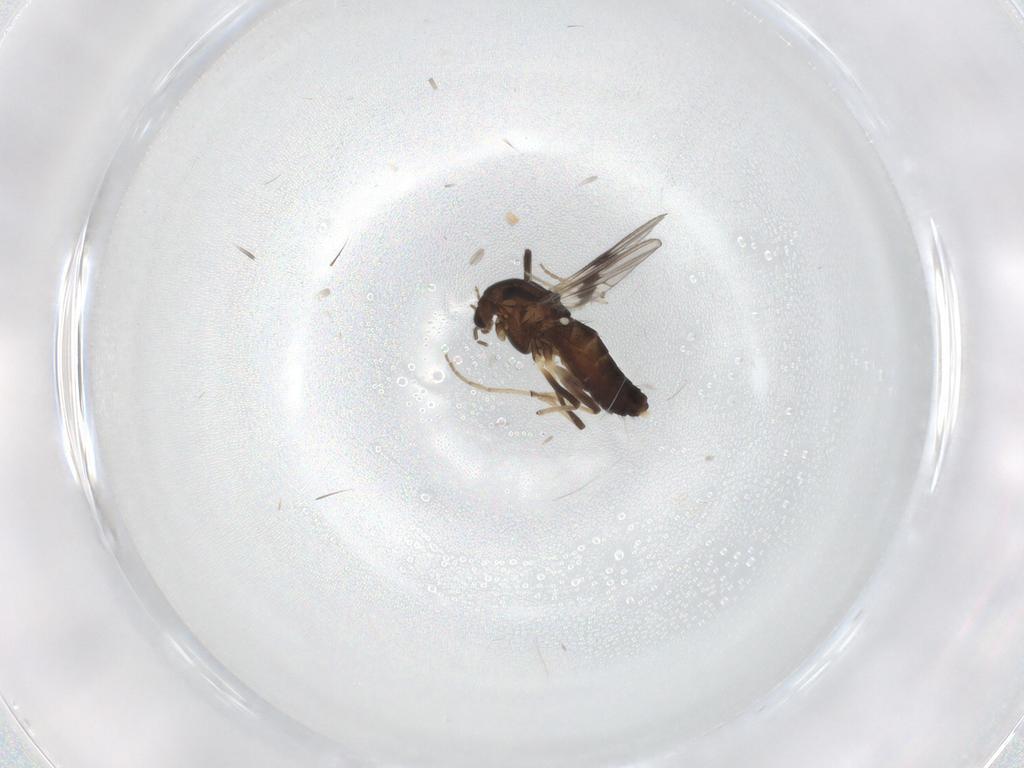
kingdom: Animalia
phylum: Arthropoda
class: Insecta
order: Diptera
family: Chironomidae
